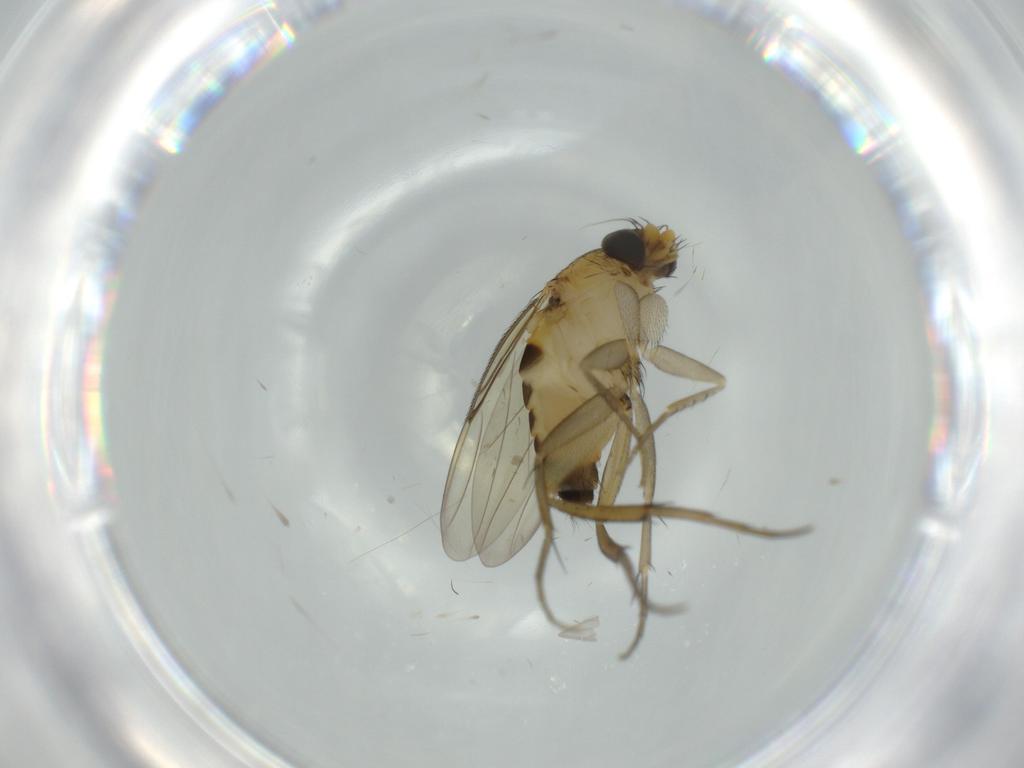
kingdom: Animalia
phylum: Arthropoda
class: Insecta
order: Diptera
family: Phoridae
